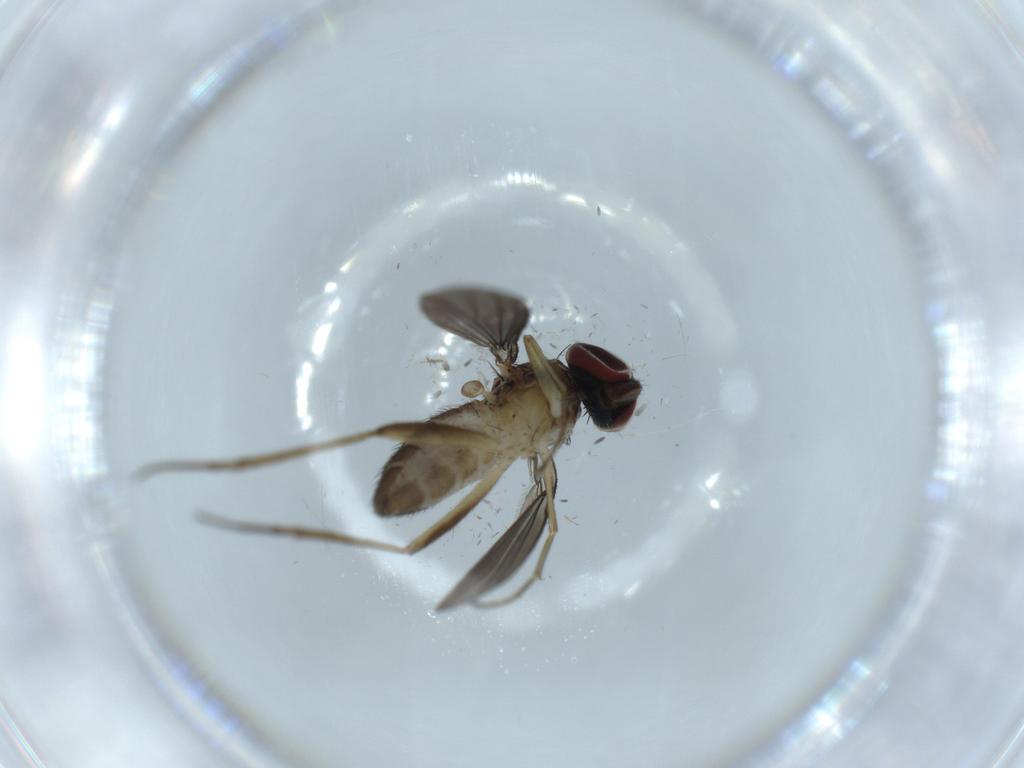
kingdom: Animalia
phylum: Arthropoda
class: Insecta
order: Diptera
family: Dolichopodidae
